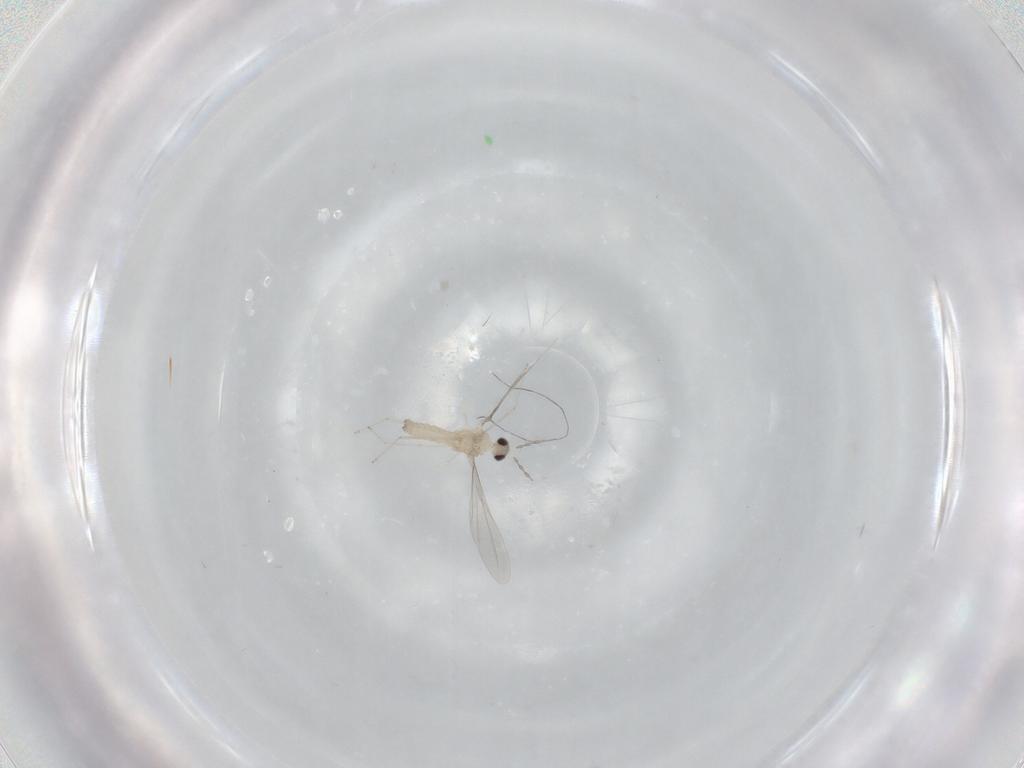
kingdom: Animalia
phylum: Arthropoda
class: Insecta
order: Diptera
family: Cecidomyiidae
